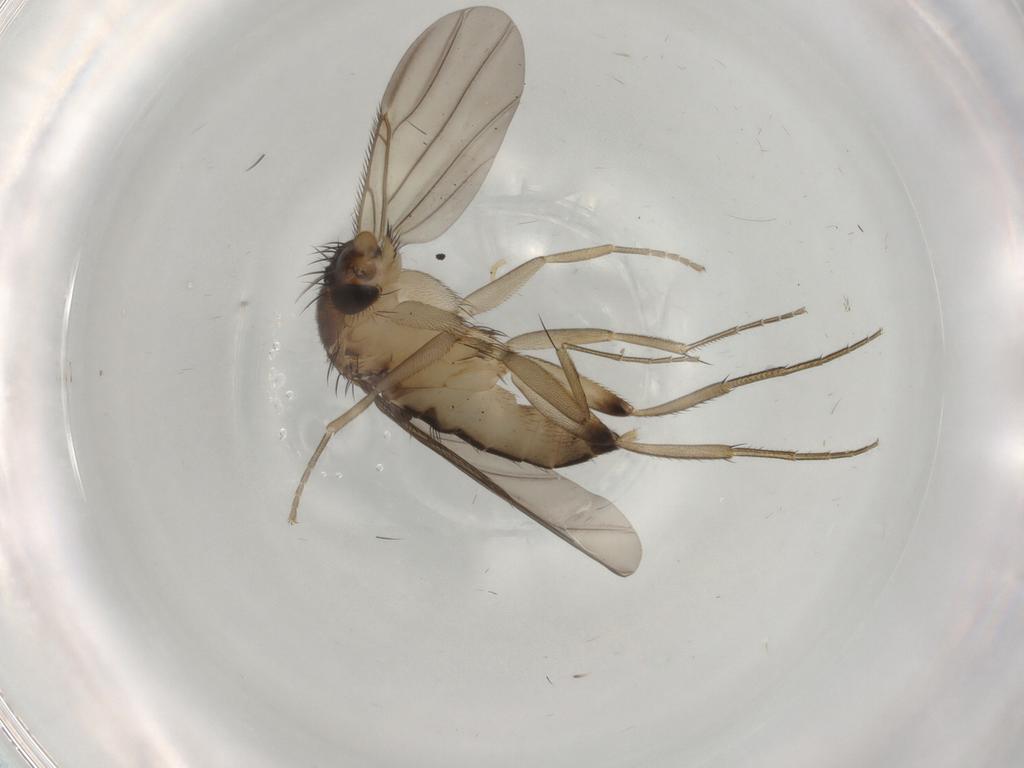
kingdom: Animalia
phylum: Arthropoda
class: Insecta
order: Diptera
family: Phoridae
